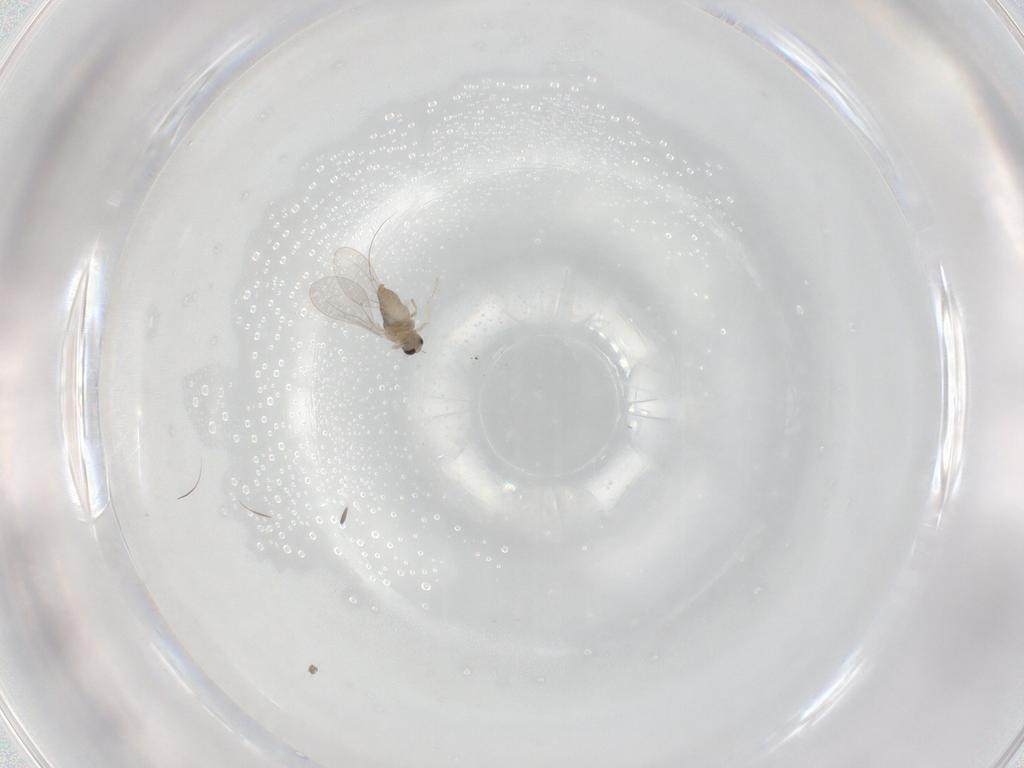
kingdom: Animalia
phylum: Arthropoda
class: Insecta
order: Diptera
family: Cecidomyiidae
